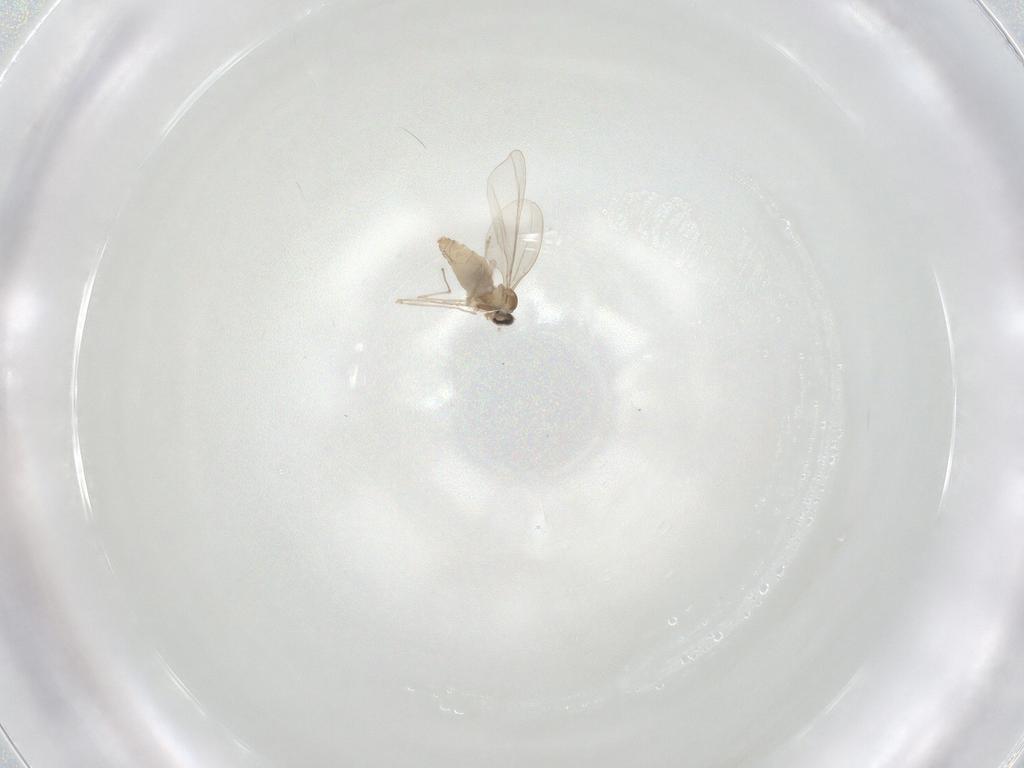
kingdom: Animalia
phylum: Arthropoda
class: Insecta
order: Diptera
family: Cecidomyiidae
